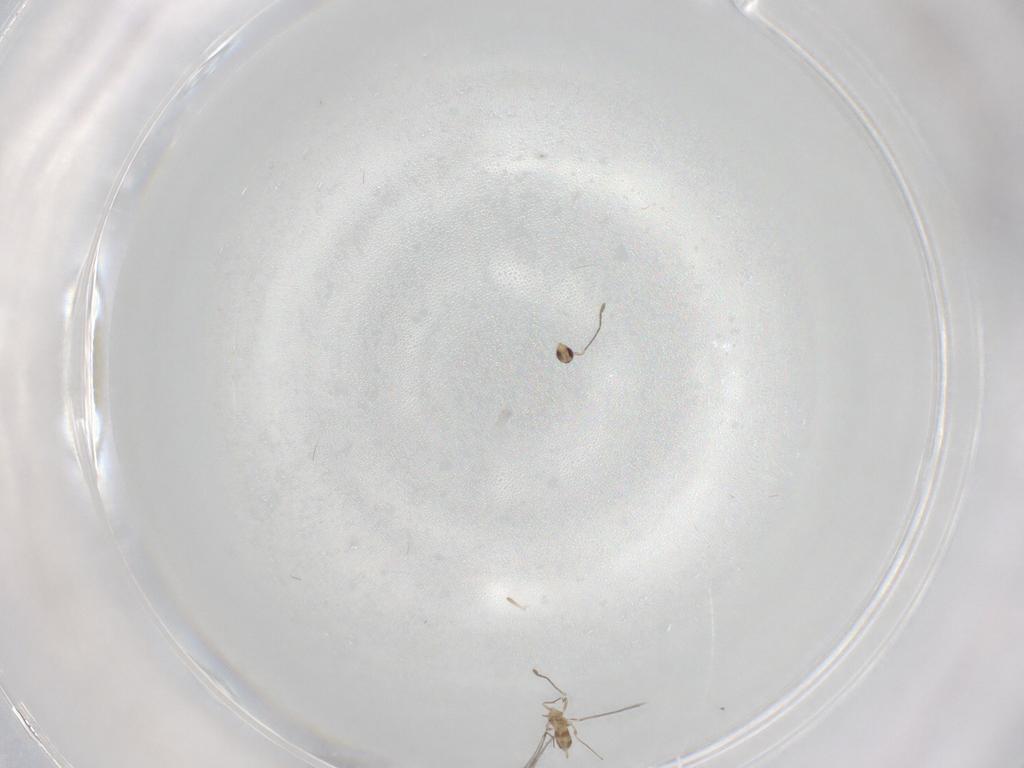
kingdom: Animalia
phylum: Arthropoda
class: Insecta
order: Hymenoptera
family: Mymaridae
